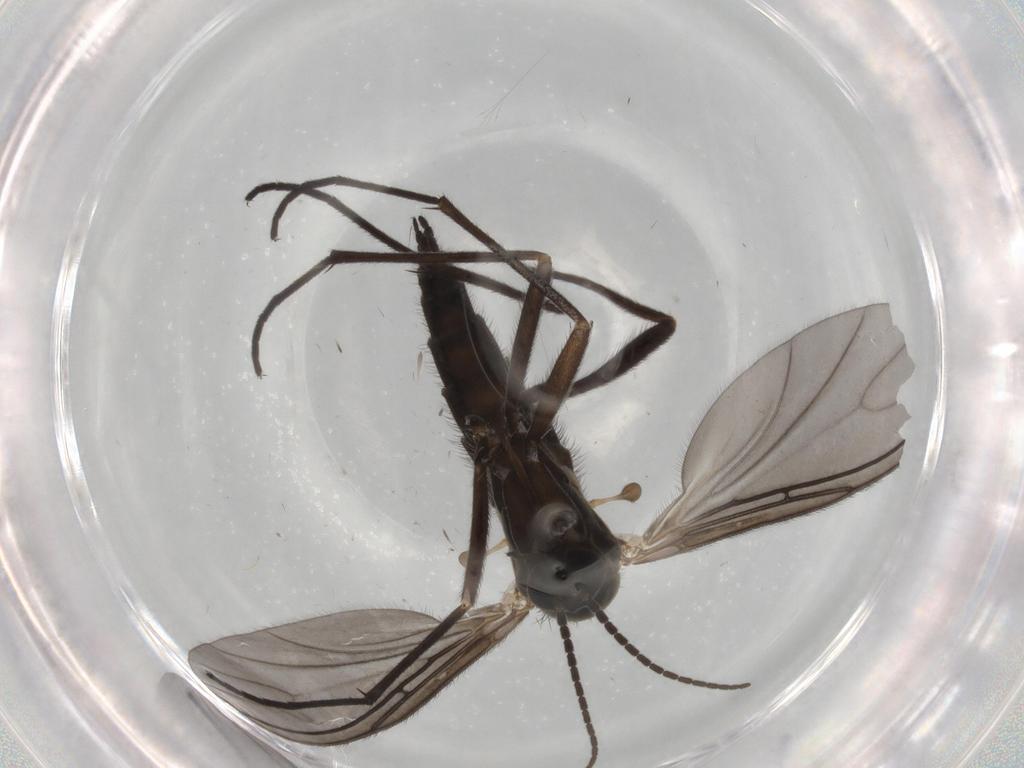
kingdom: Animalia
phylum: Arthropoda
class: Insecta
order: Diptera
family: Sciaridae
